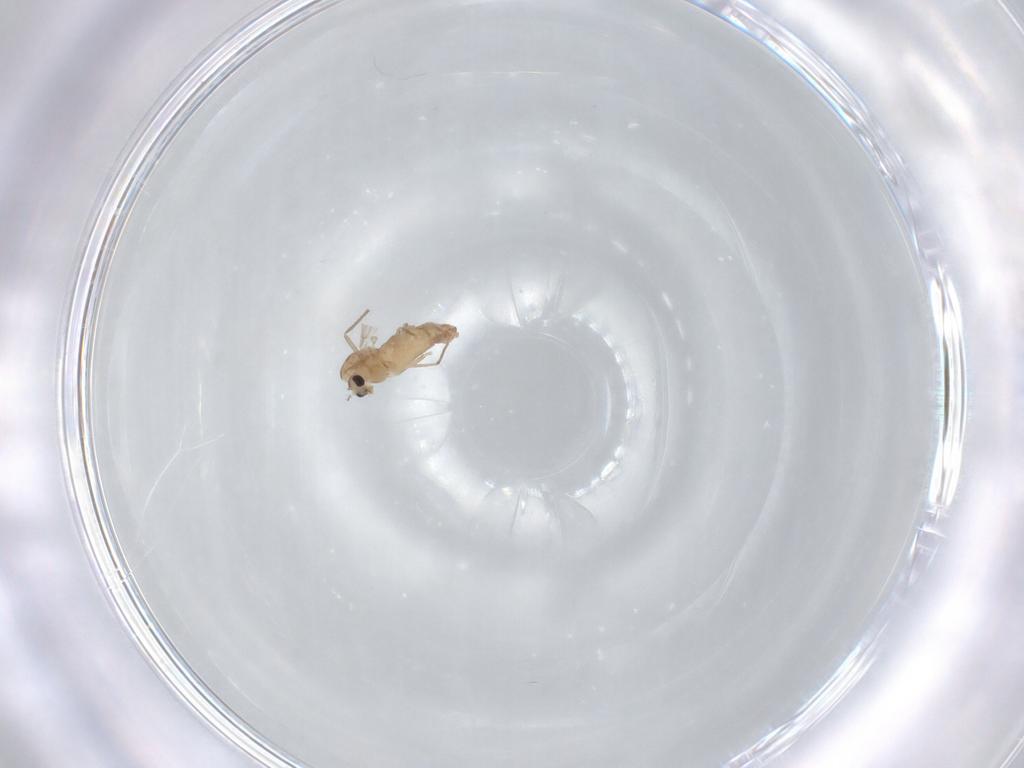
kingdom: Animalia
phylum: Arthropoda
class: Insecta
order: Diptera
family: Chironomidae
